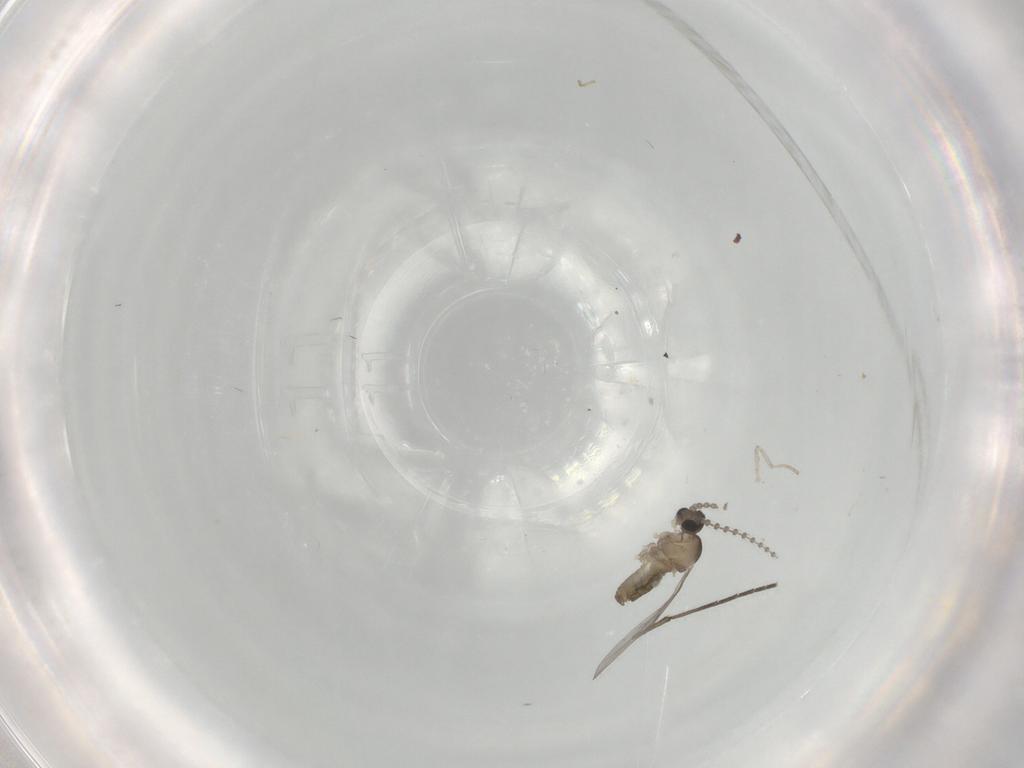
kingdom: Animalia
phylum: Arthropoda
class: Insecta
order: Diptera
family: Cecidomyiidae
